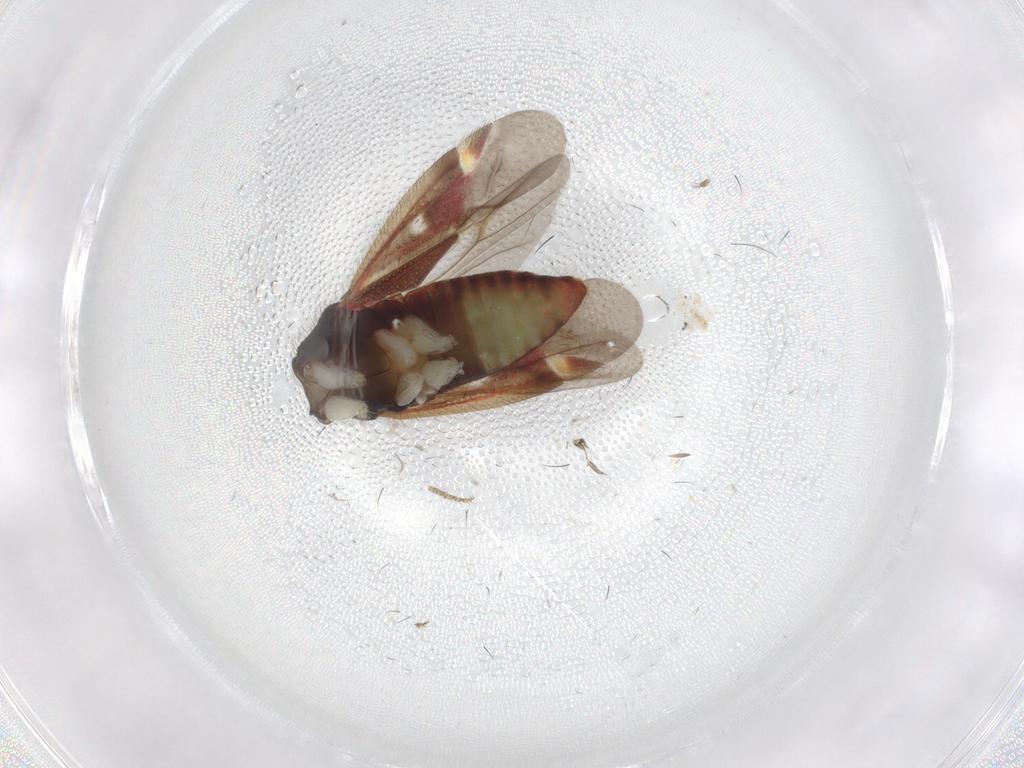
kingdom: Animalia
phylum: Arthropoda
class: Insecta
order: Hemiptera
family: Miridae
